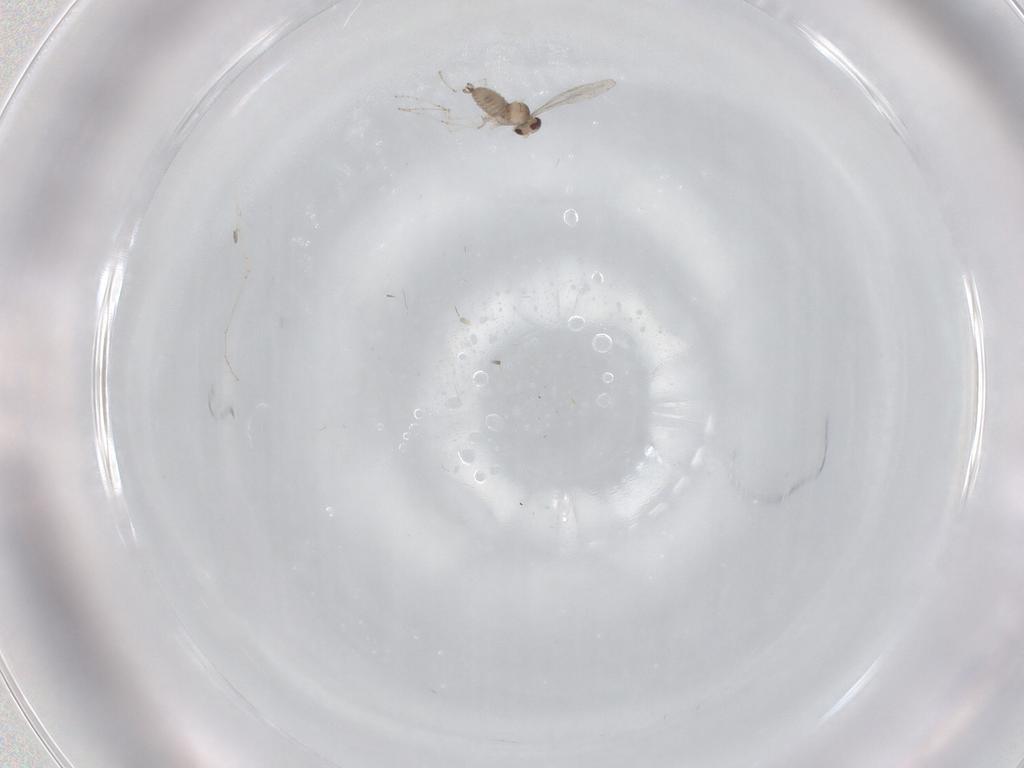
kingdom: Animalia
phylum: Arthropoda
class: Insecta
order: Diptera
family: Cecidomyiidae
